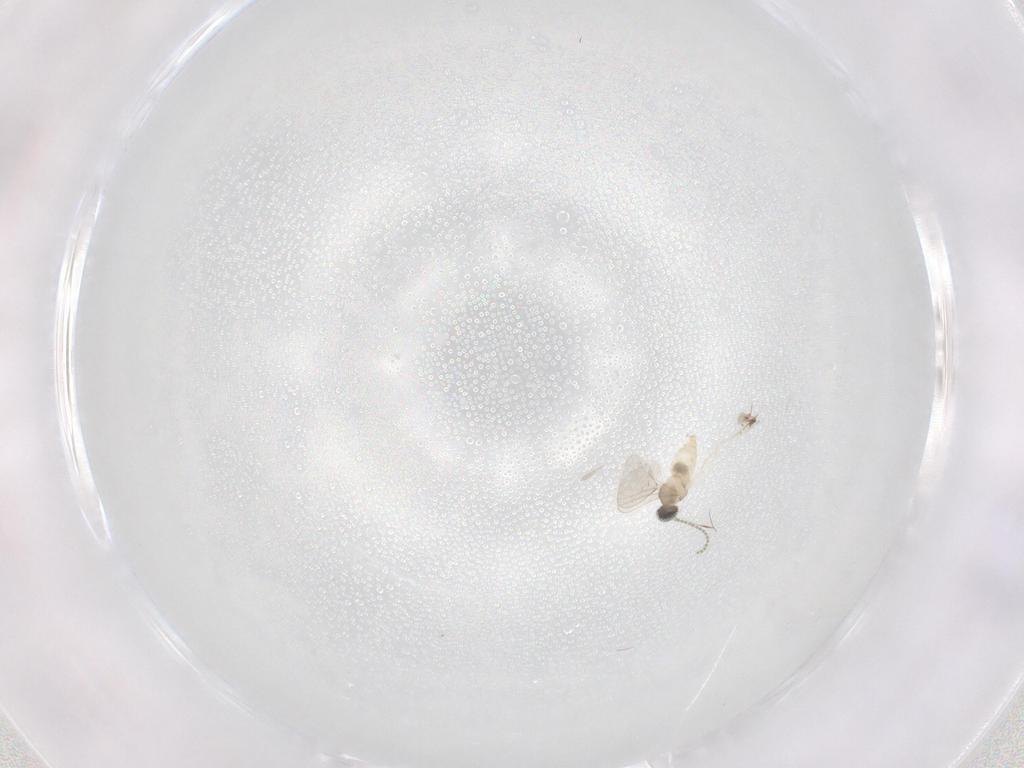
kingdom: Animalia
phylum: Arthropoda
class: Insecta
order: Diptera
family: Cecidomyiidae
